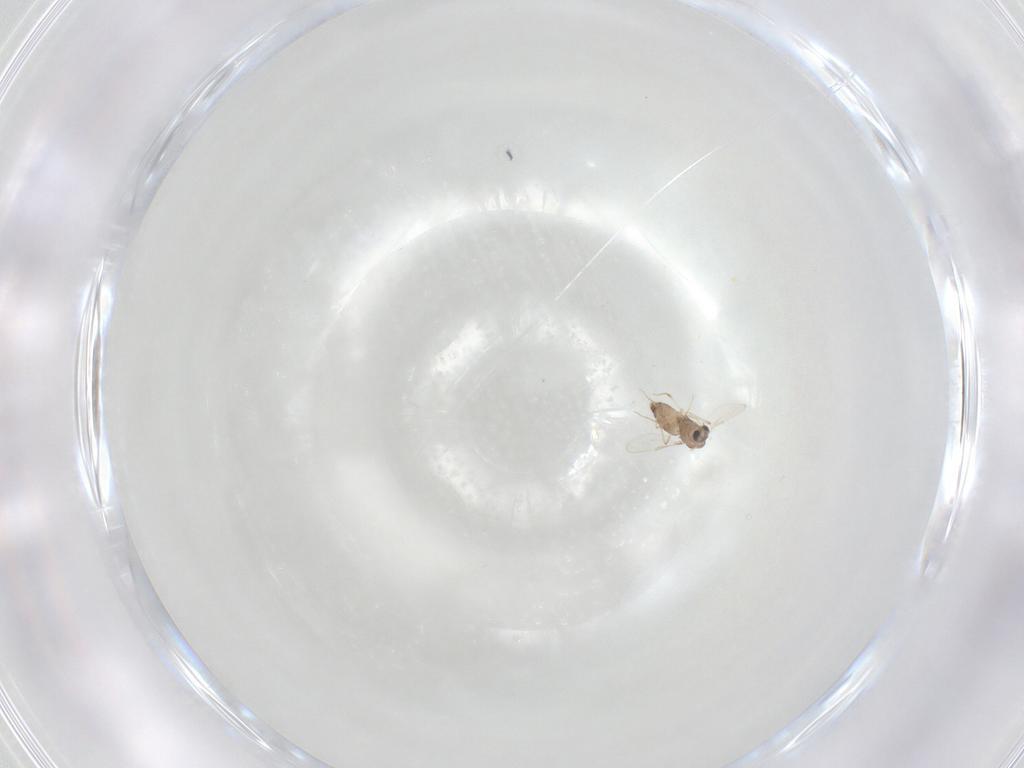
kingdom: Animalia
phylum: Arthropoda
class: Insecta
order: Diptera
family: Chironomidae
